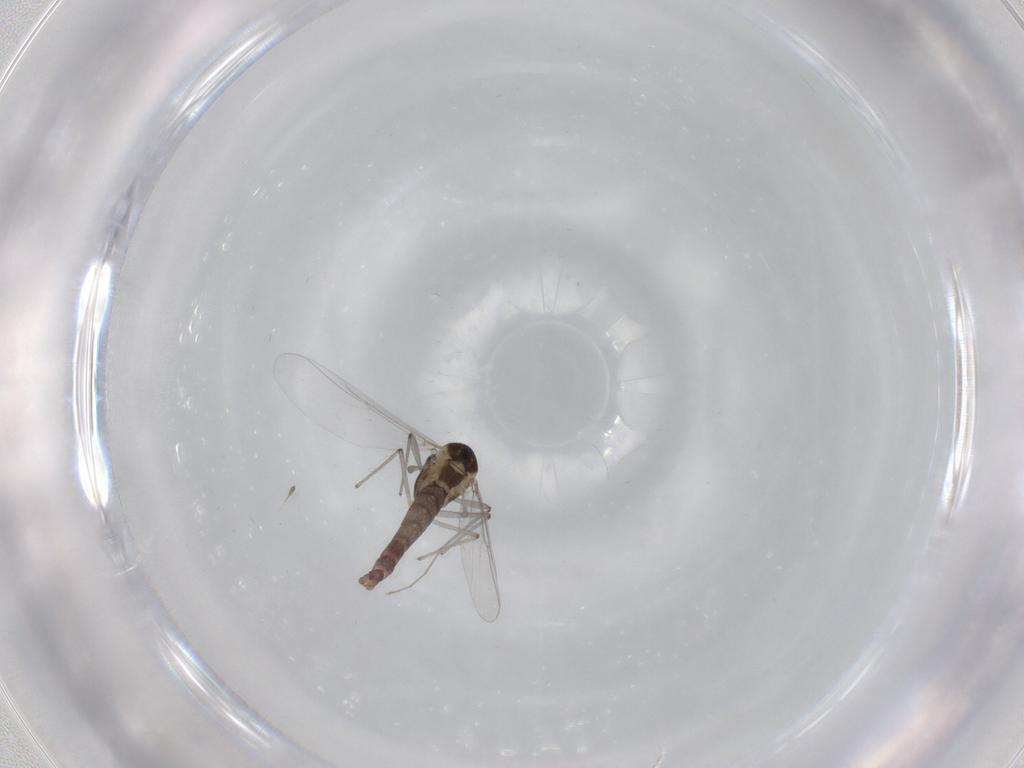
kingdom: Animalia
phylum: Arthropoda
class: Insecta
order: Diptera
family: Chironomidae
